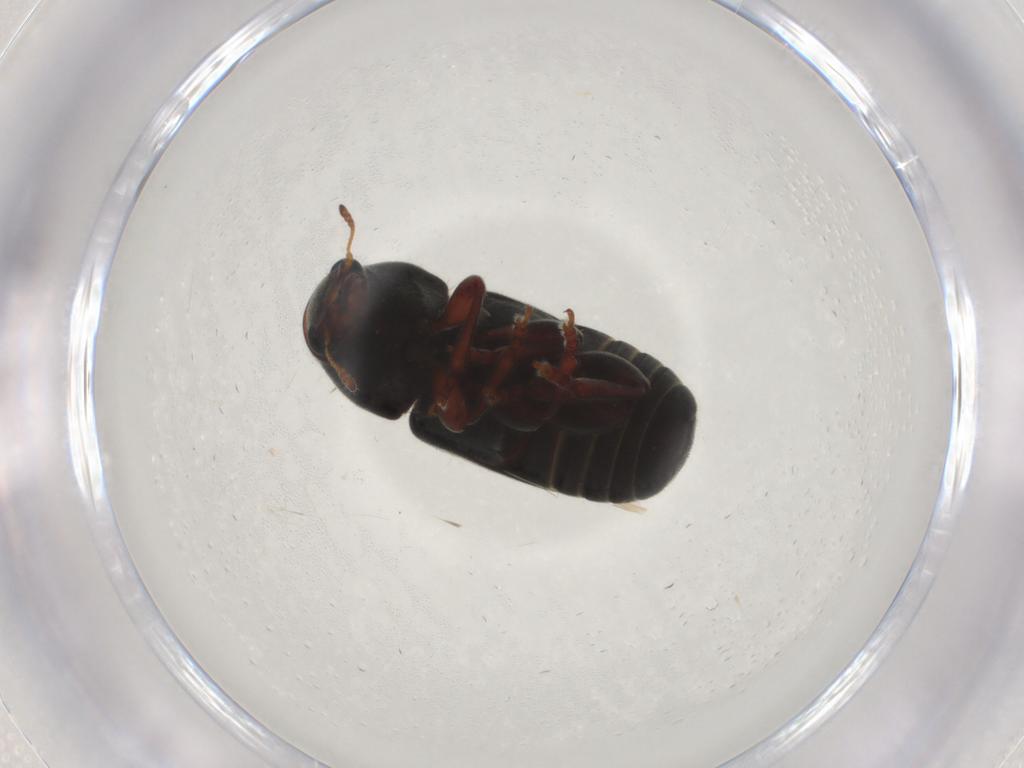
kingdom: Animalia
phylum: Arthropoda
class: Insecta
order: Coleoptera
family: Anthribidae
